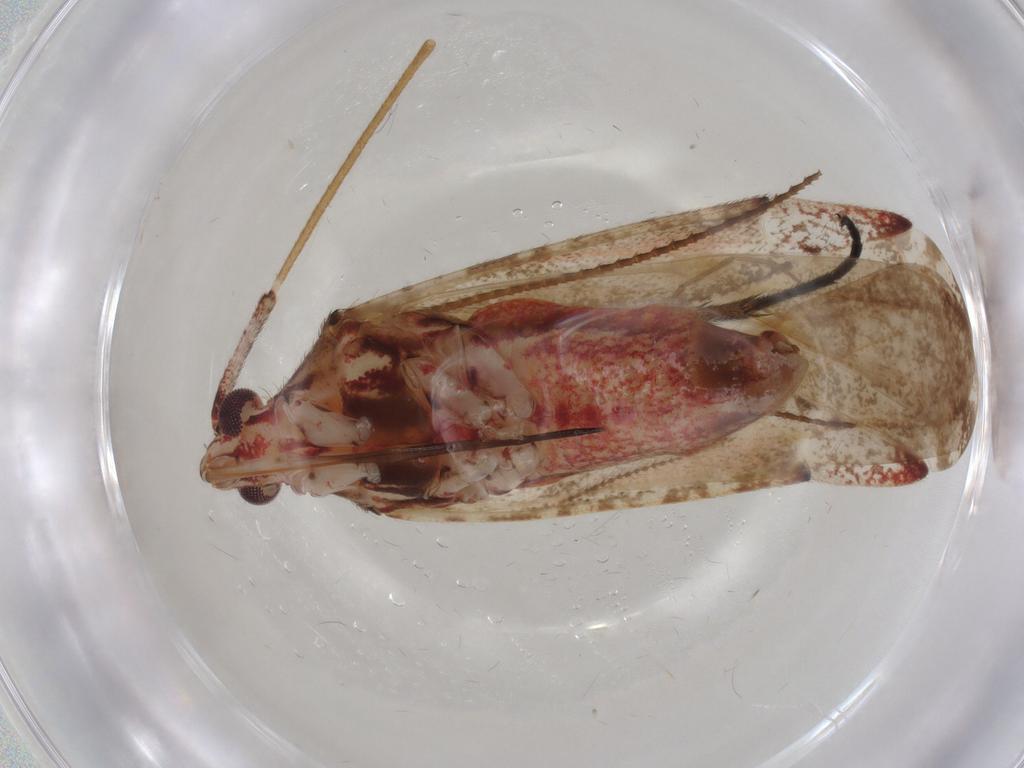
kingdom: Animalia
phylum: Arthropoda
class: Insecta
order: Hemiptera
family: Miridae
